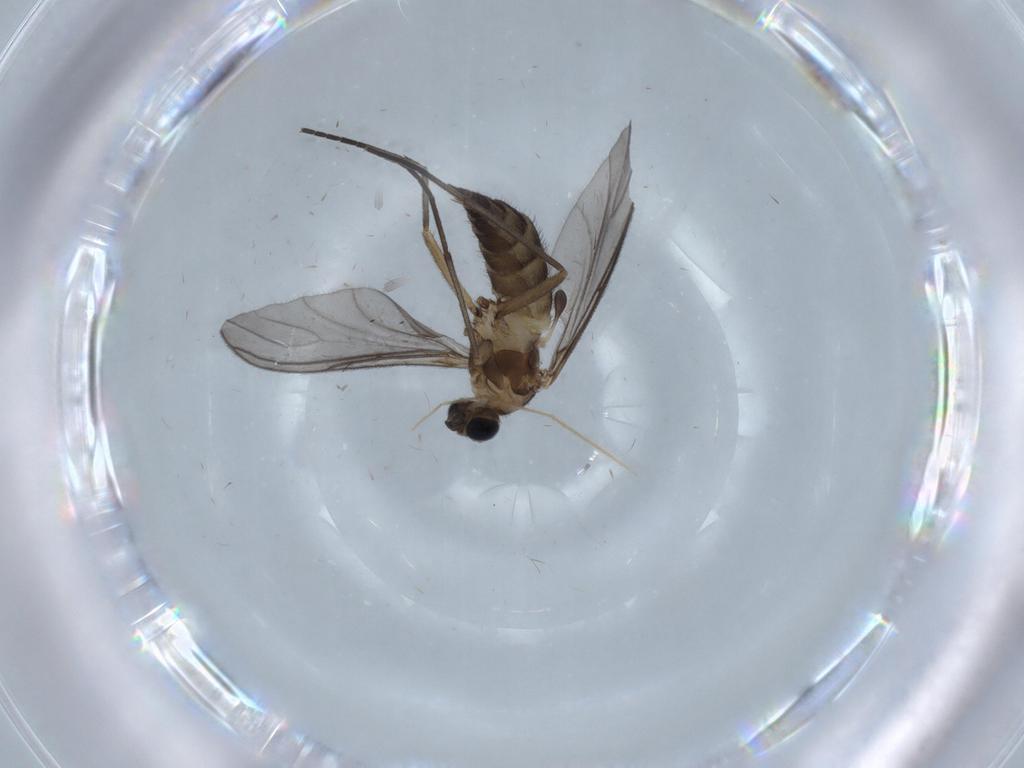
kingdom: Animalia
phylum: Arthropoda
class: Insecta
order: Diptera
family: Sciaridae
